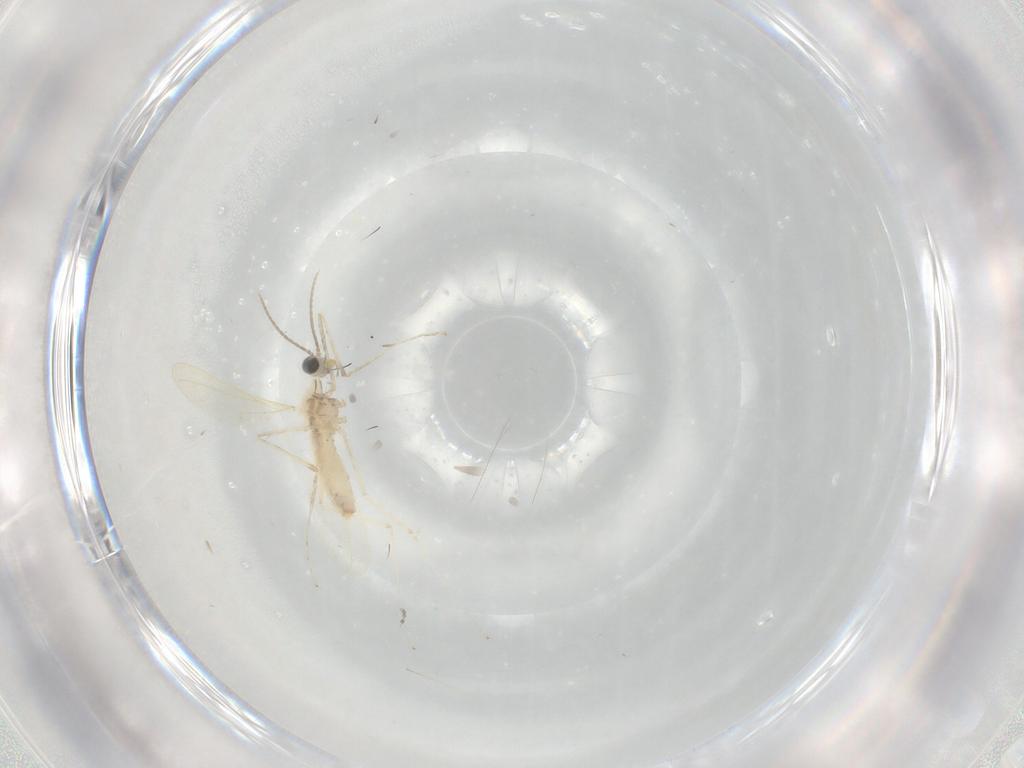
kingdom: Animalia
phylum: Arthropoda
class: Insecta
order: Diptera
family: Cecidomyiidae
